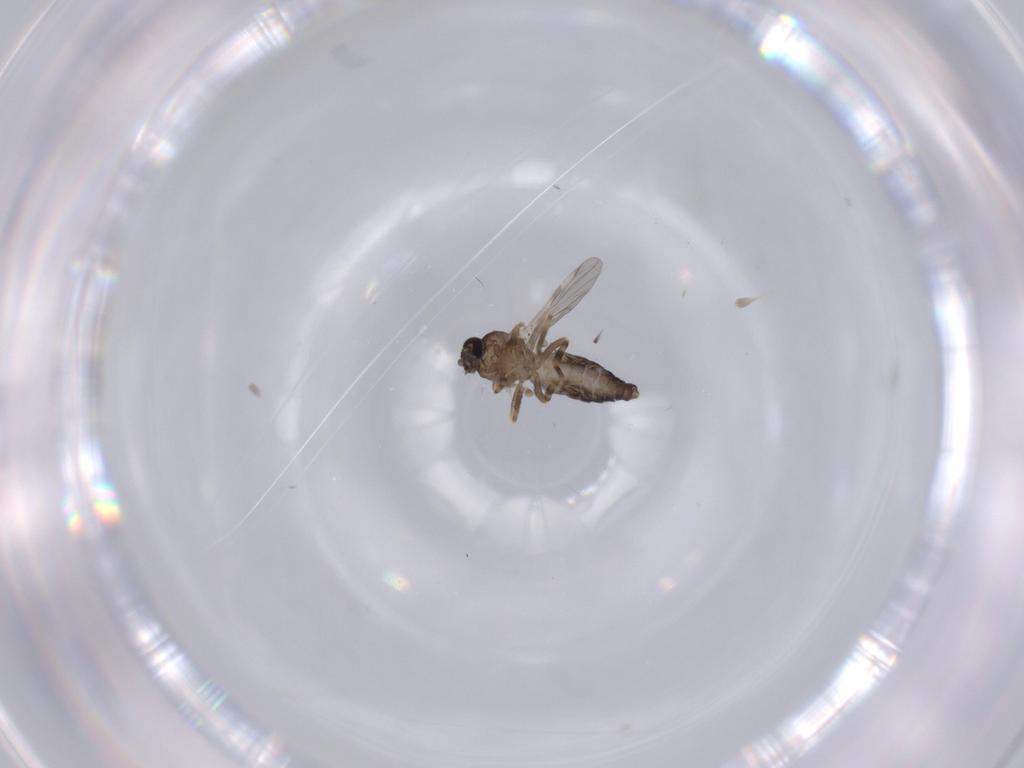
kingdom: Animalia
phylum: Arthropoda
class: Insecta
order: Diptera
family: Ceratopogonidae
